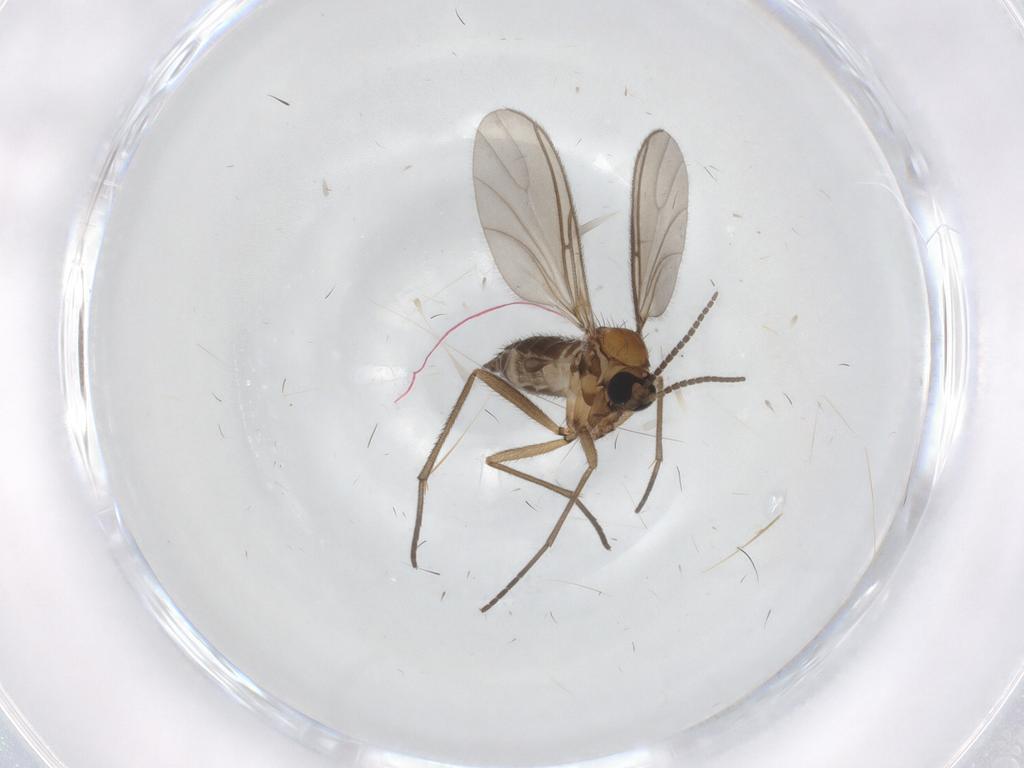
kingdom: Animalia
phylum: Arthropoda
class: Insecta
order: Diptera
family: Sciaridae
